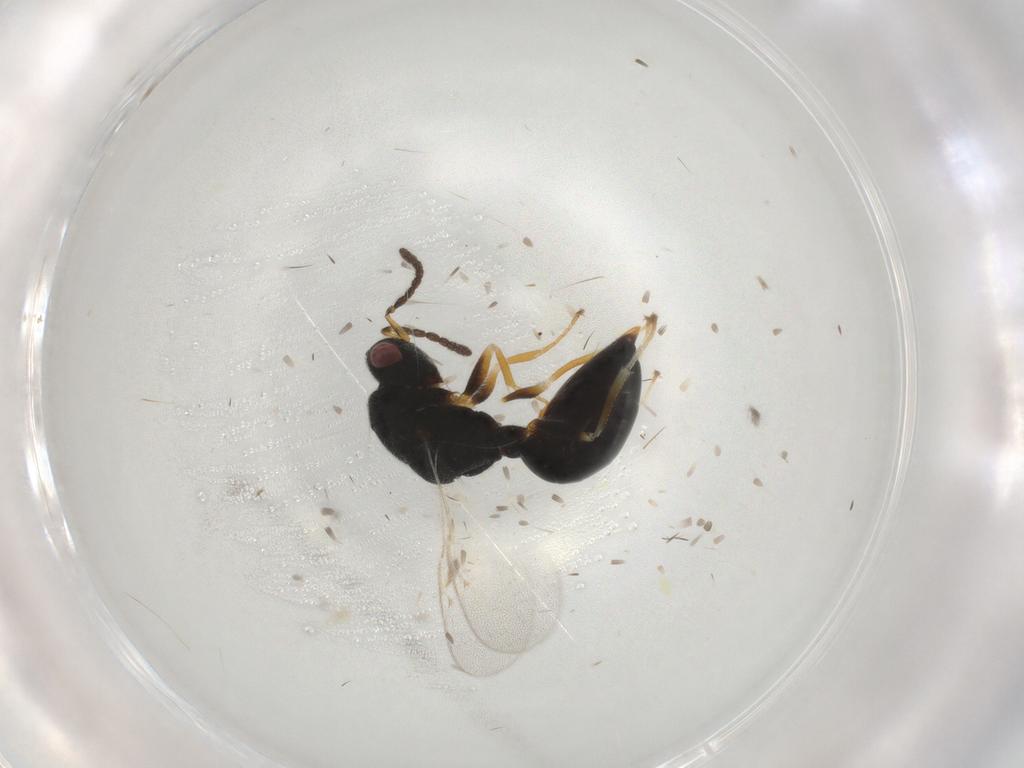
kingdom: Animalia
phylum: Arthropoda
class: Insecta
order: Hymenoptera
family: Eurytomidae
